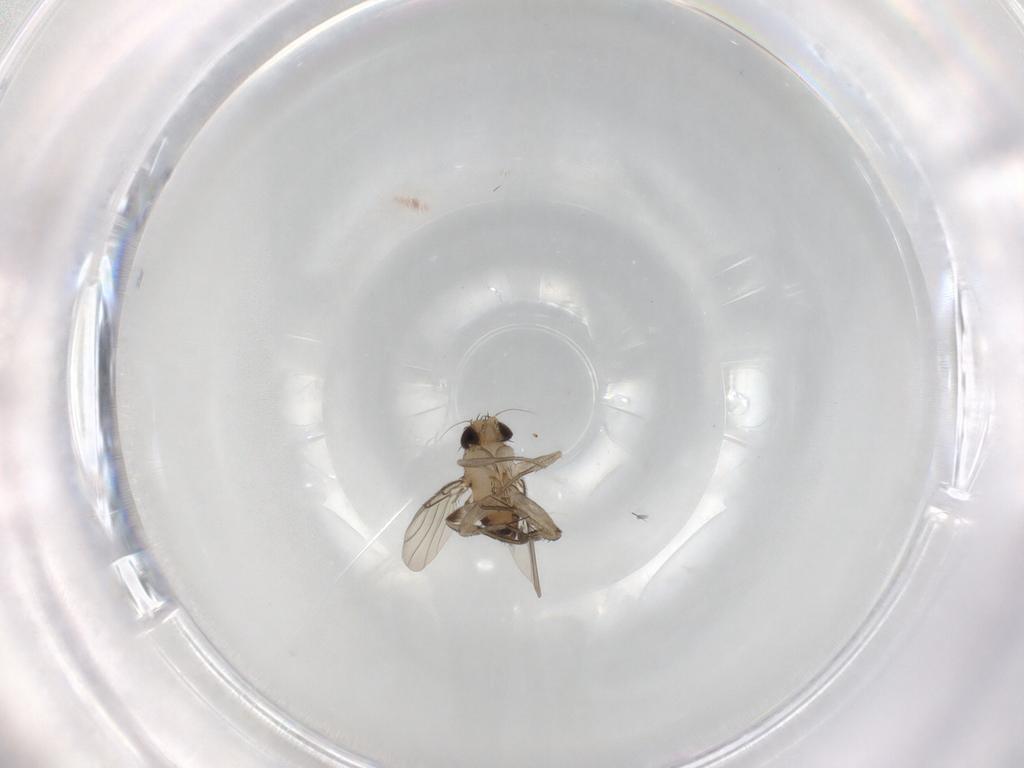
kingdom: Animalia
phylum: Arthropoda
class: Insecta
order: Diptera
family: Phoridae
